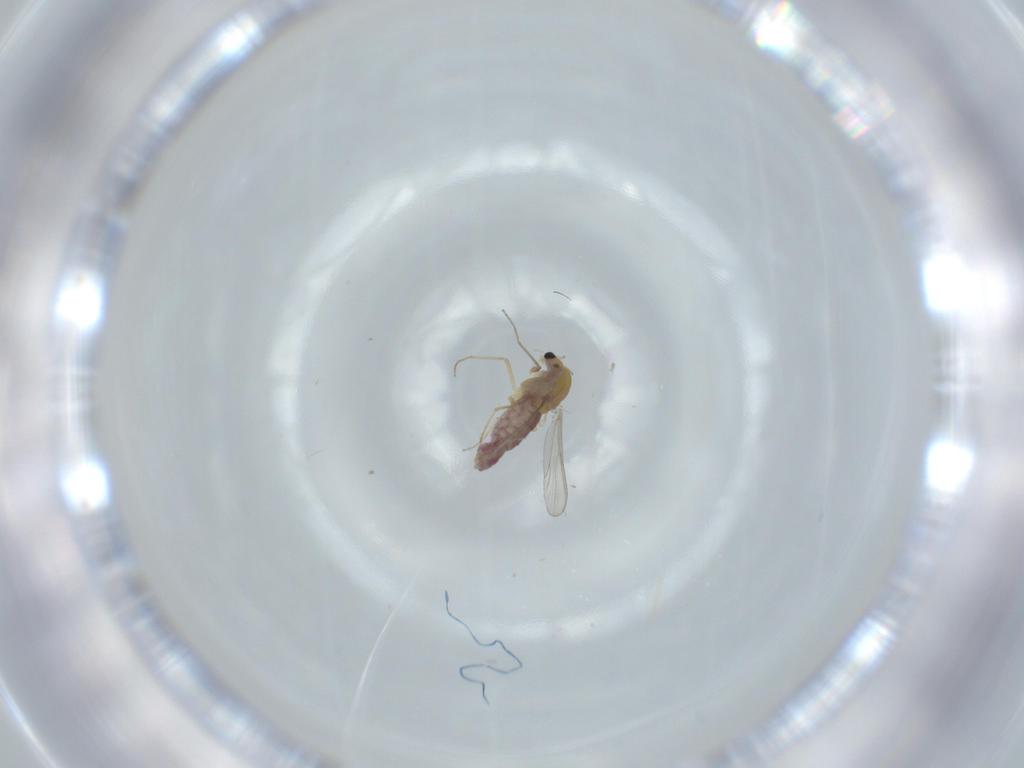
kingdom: Animalia
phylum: Arthropoda
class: Insecta
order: Diptera
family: Chironomidae
